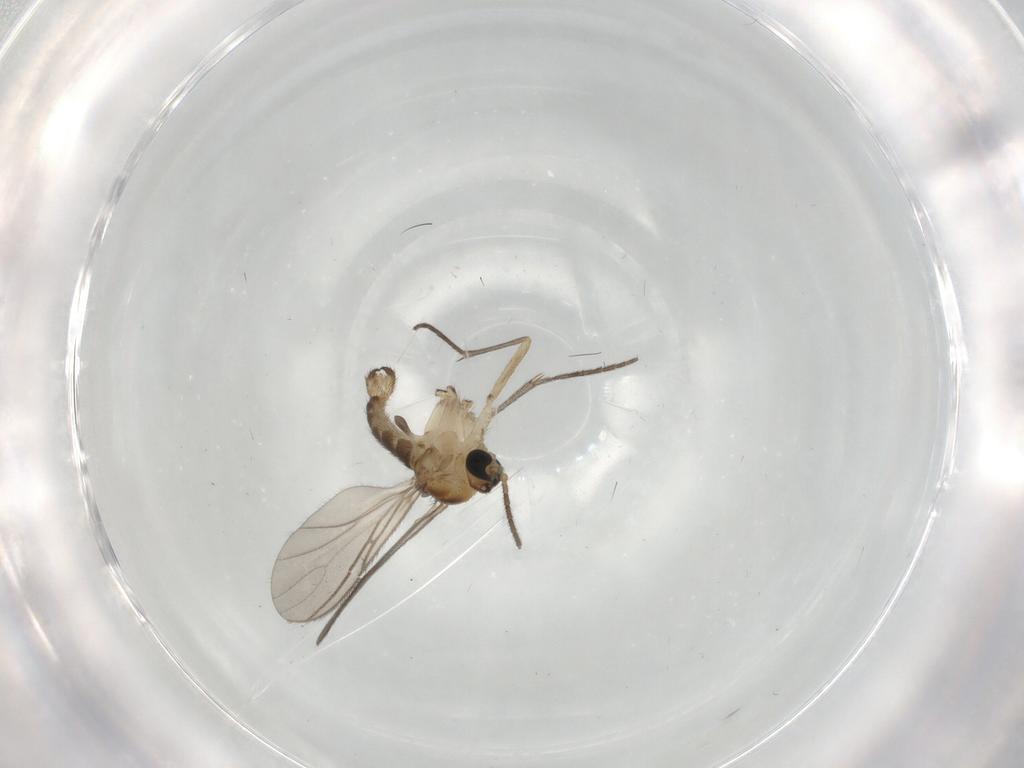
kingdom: Animalia
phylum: Arthropoda
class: Insecta
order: Diptera
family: Sciaridae
